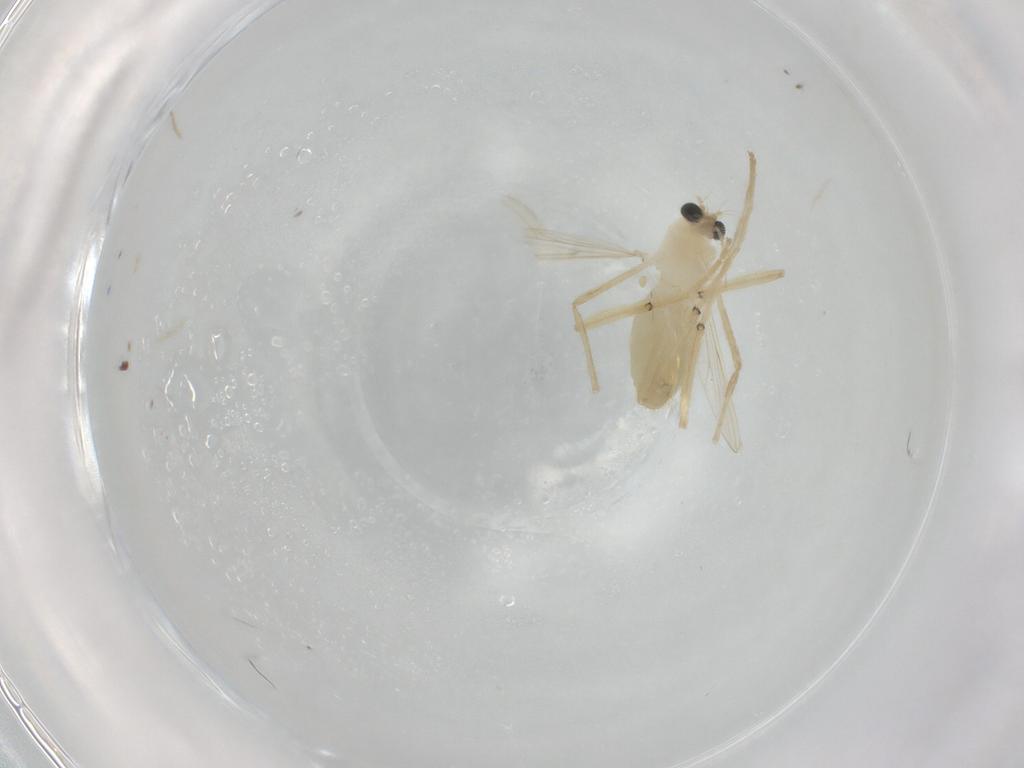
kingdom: Animalia
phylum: Arthropoda
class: Insecta
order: Diptera
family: Chironomidae
